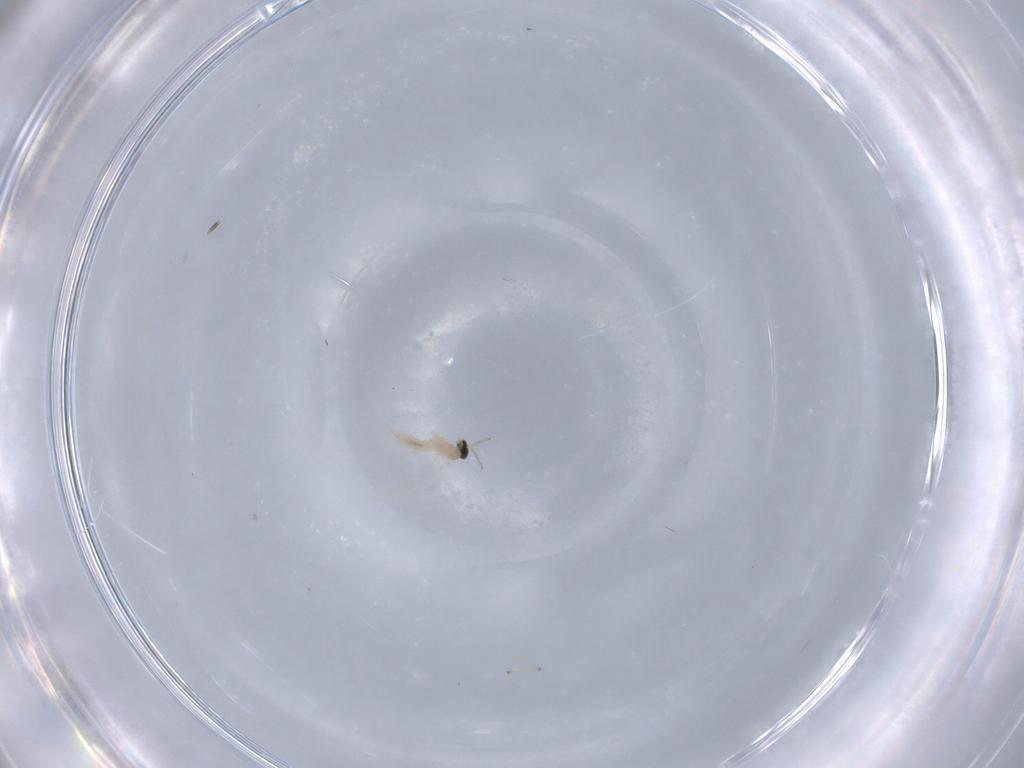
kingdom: Animalia
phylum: Arthropoda
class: Insecta
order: Diptera
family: Chironomidae
